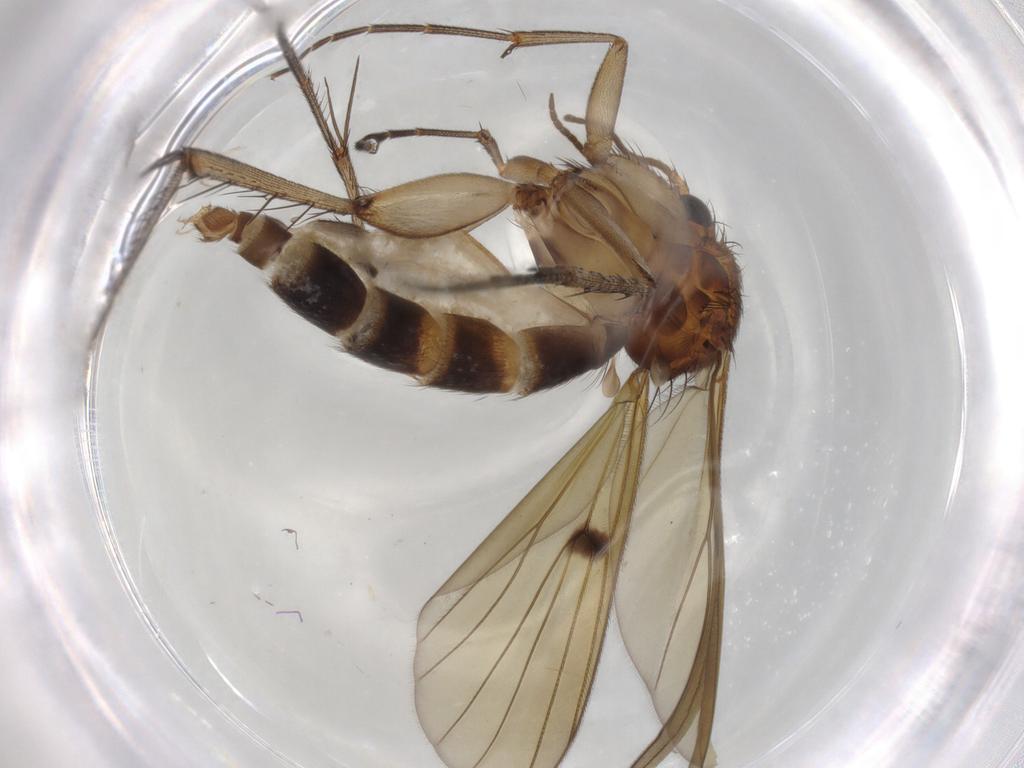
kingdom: Animalia
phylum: Arthropoda
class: Insecta
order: Diptera
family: Mycetophilidae
